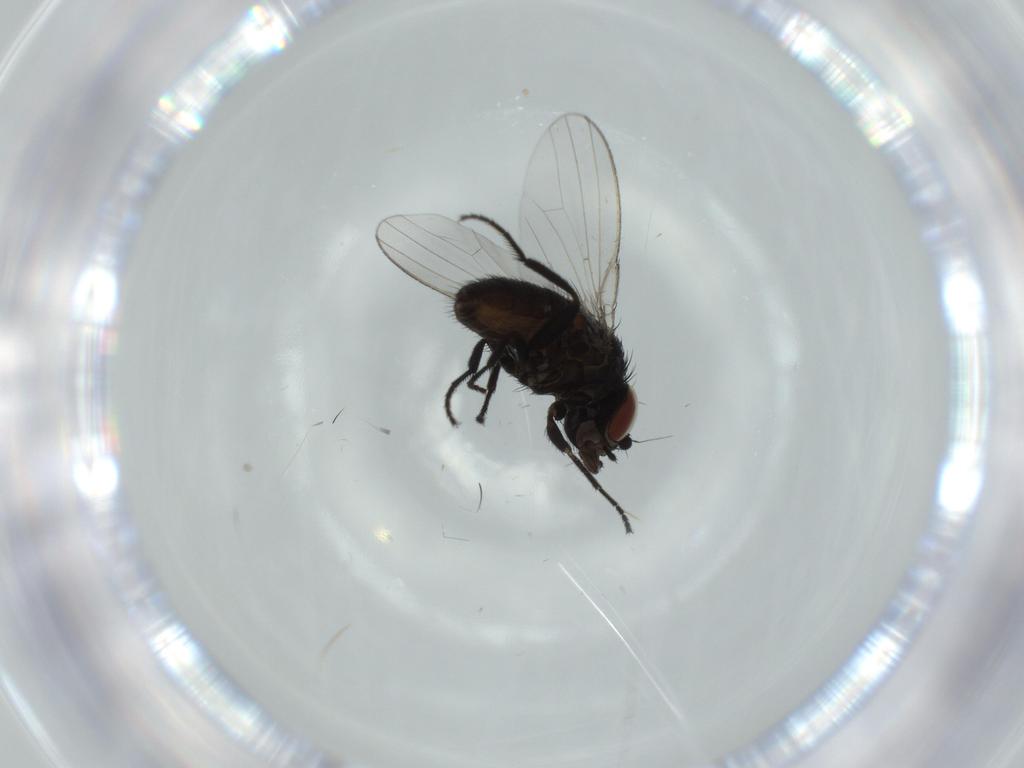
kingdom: Animalia
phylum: Arthropoda
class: Insecta
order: Diptera
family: Milichiidae
